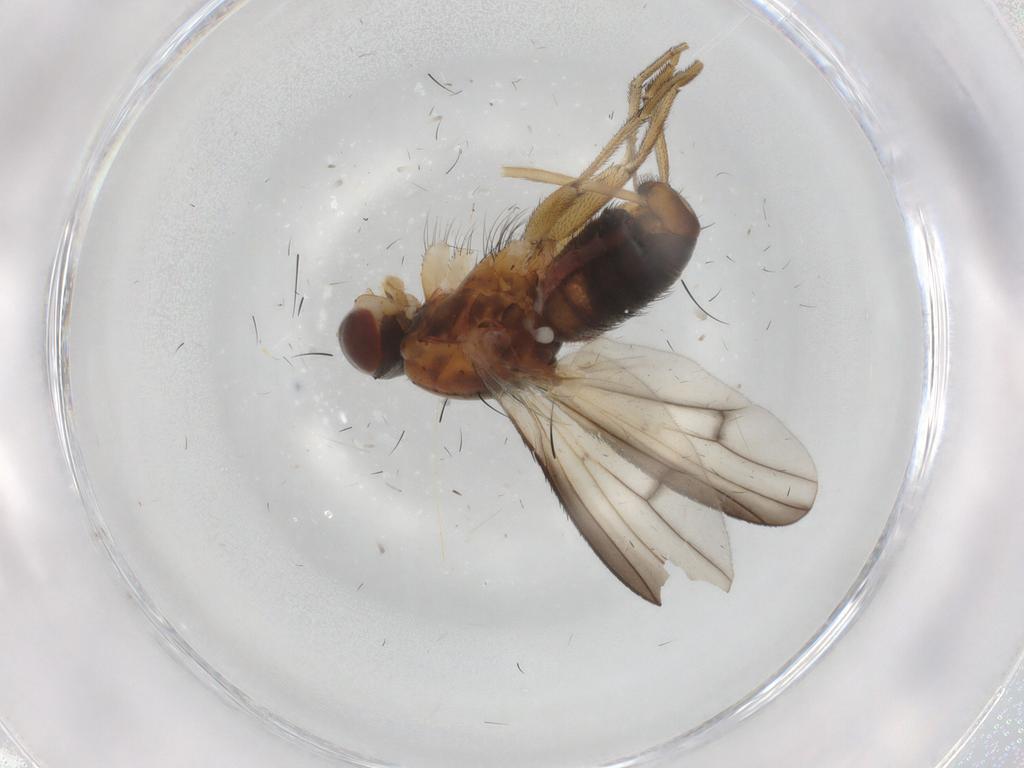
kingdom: Animalia
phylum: Arthropoda
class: Insecta
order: Diptera
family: Heleomyzidae
